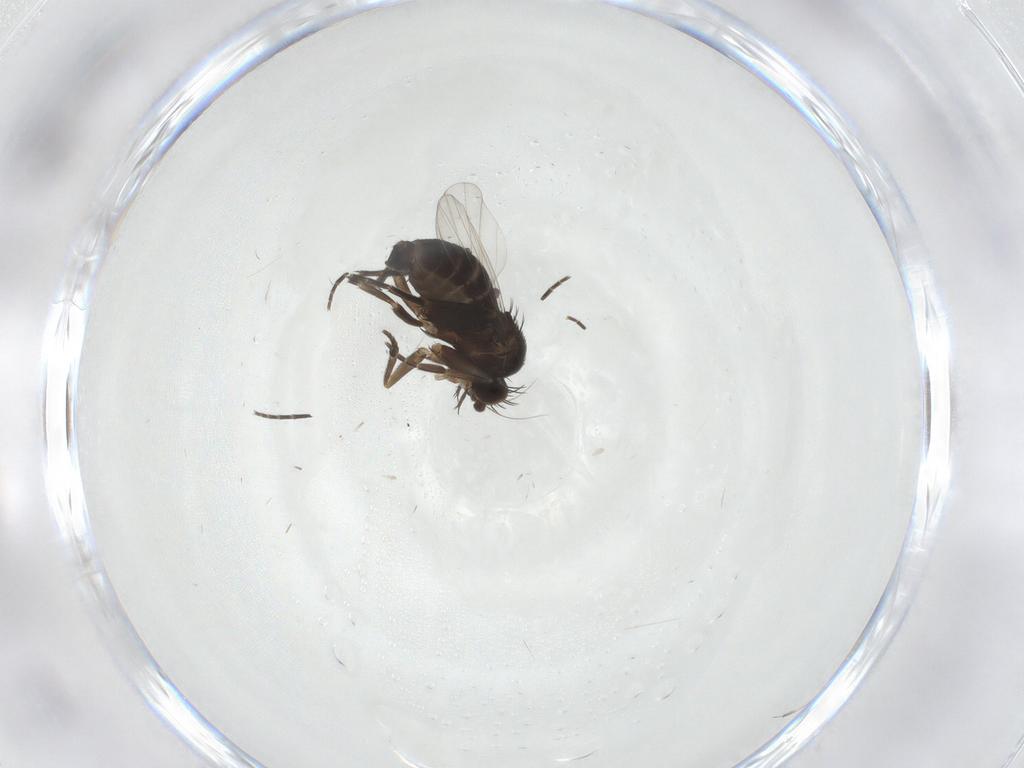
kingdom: Animalia
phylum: Arthropoda
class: Insecta
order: Diptera
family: Phoridae
